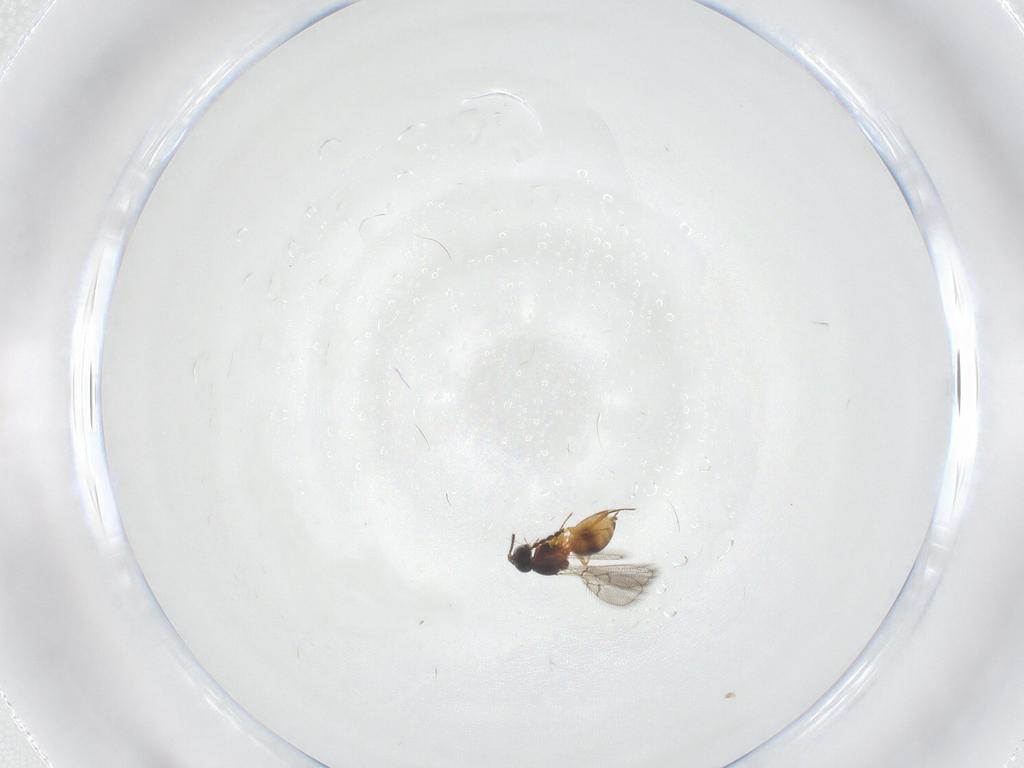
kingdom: Animalia
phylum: Arthropoda
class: Insecta
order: Hymenoptera
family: Figitidae
